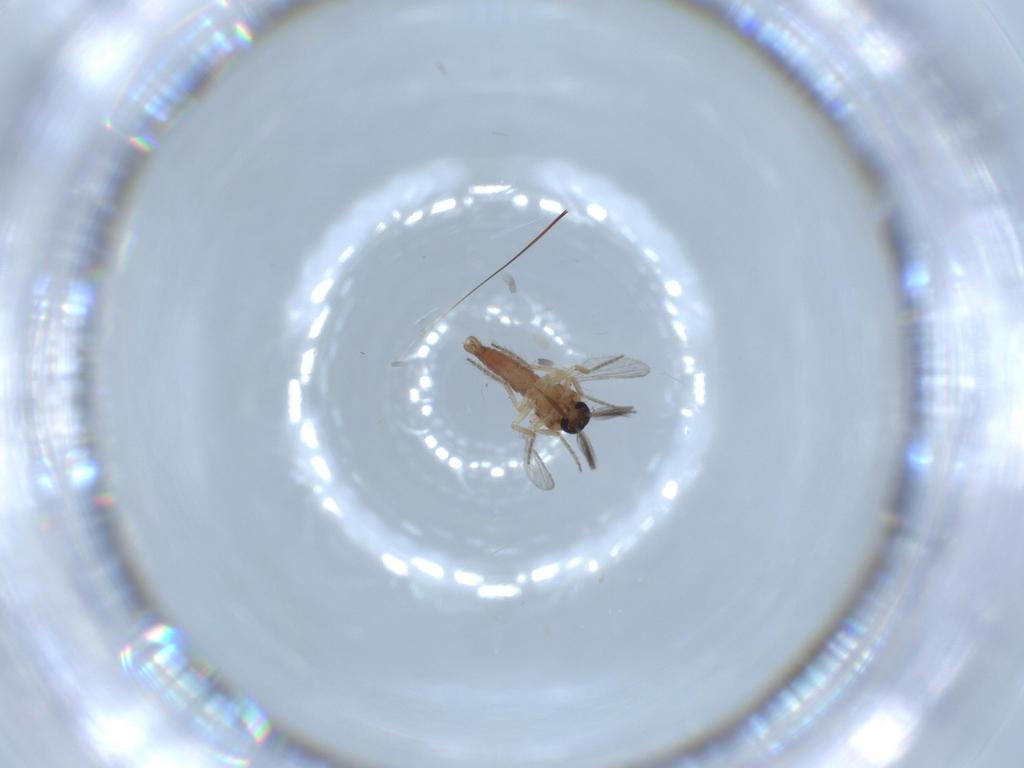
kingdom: Animalia
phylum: Arthropoda
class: Insecta
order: Diptera
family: Ceratopogonidae
